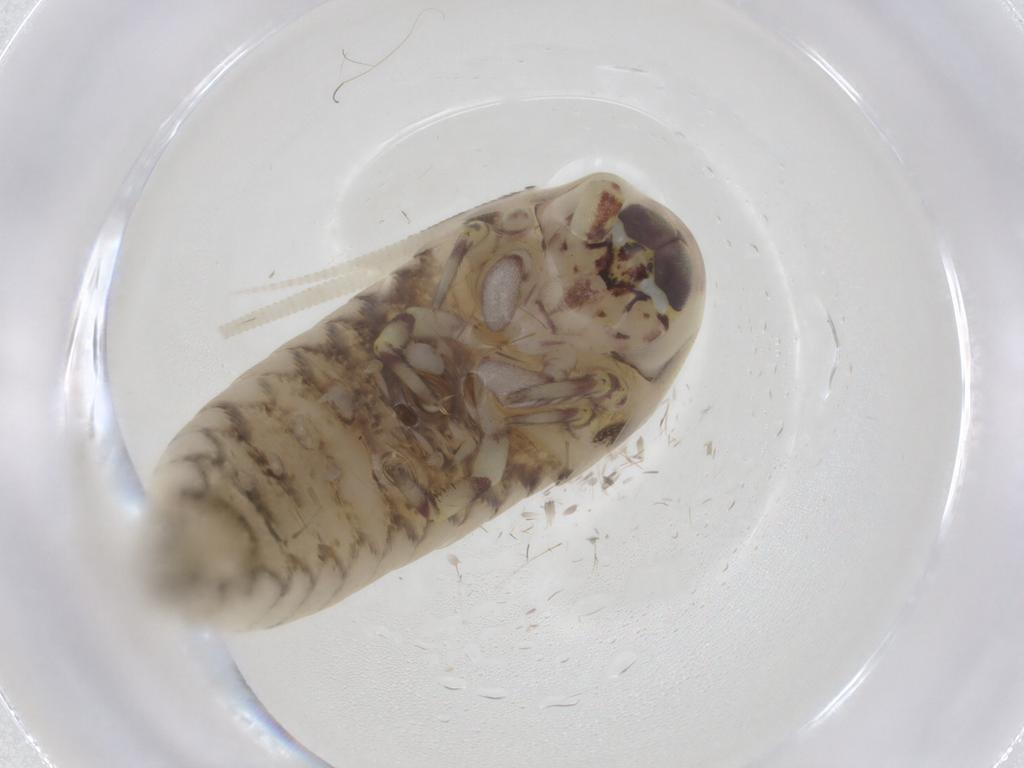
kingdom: Animalia
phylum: Arthropoda
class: Insecta
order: Archaeognatha
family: Meinertellidae
